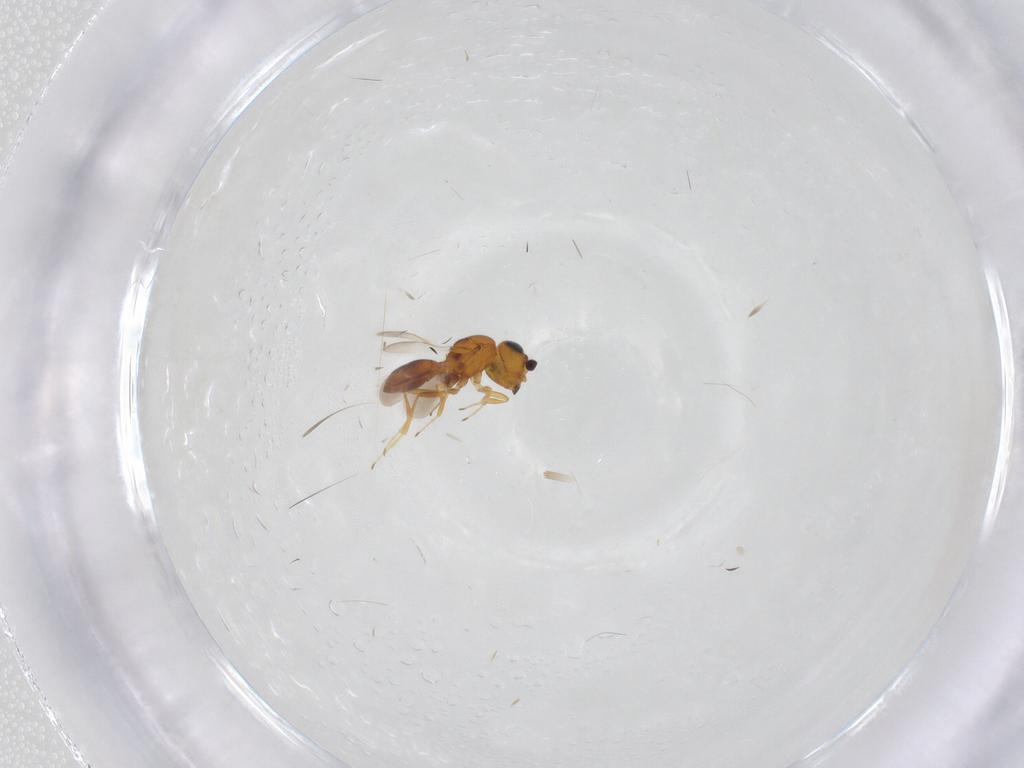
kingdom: Animalia
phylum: Arthropoda
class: Insecta
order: Hymenoptera
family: Scelionidae
